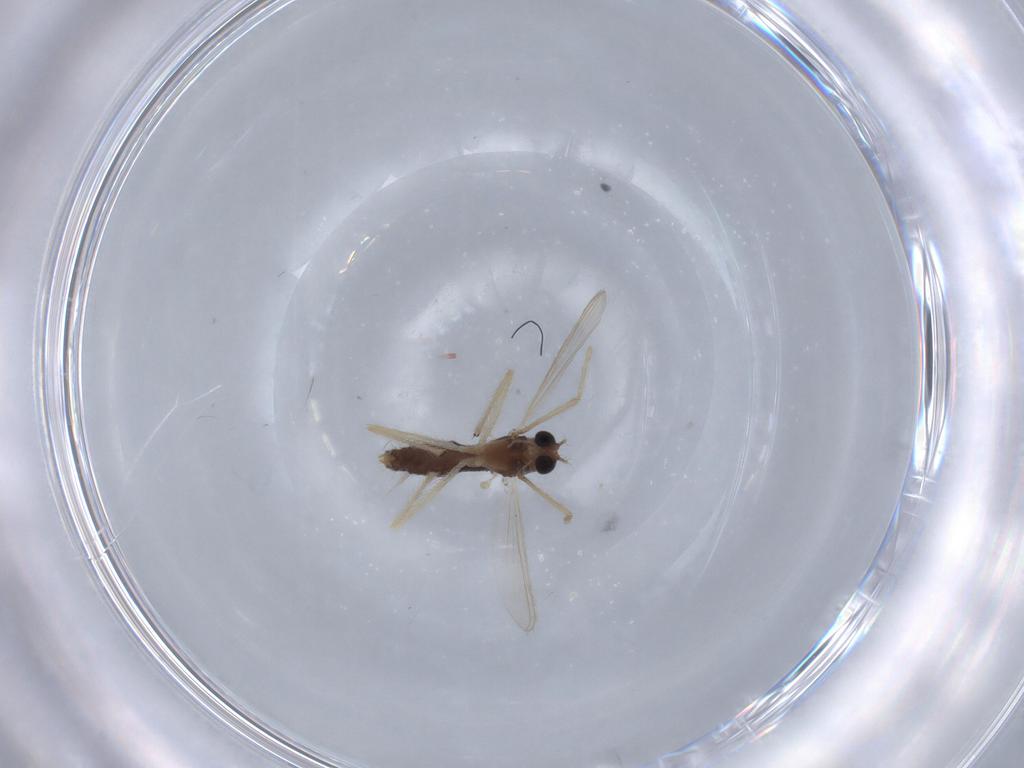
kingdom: Animalia
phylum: Arthropoda
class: Insecta
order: Diptera
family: Chironomidae
